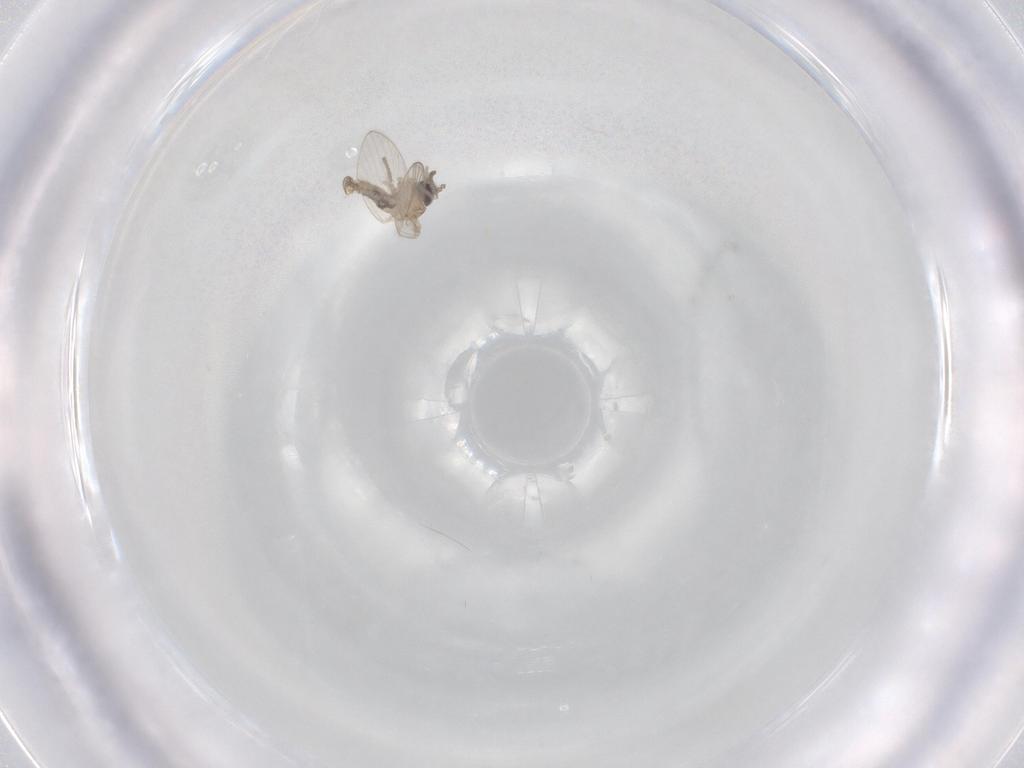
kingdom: Animalia
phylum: Arthropoda
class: Insecta
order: Diptera
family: Psychodidae
